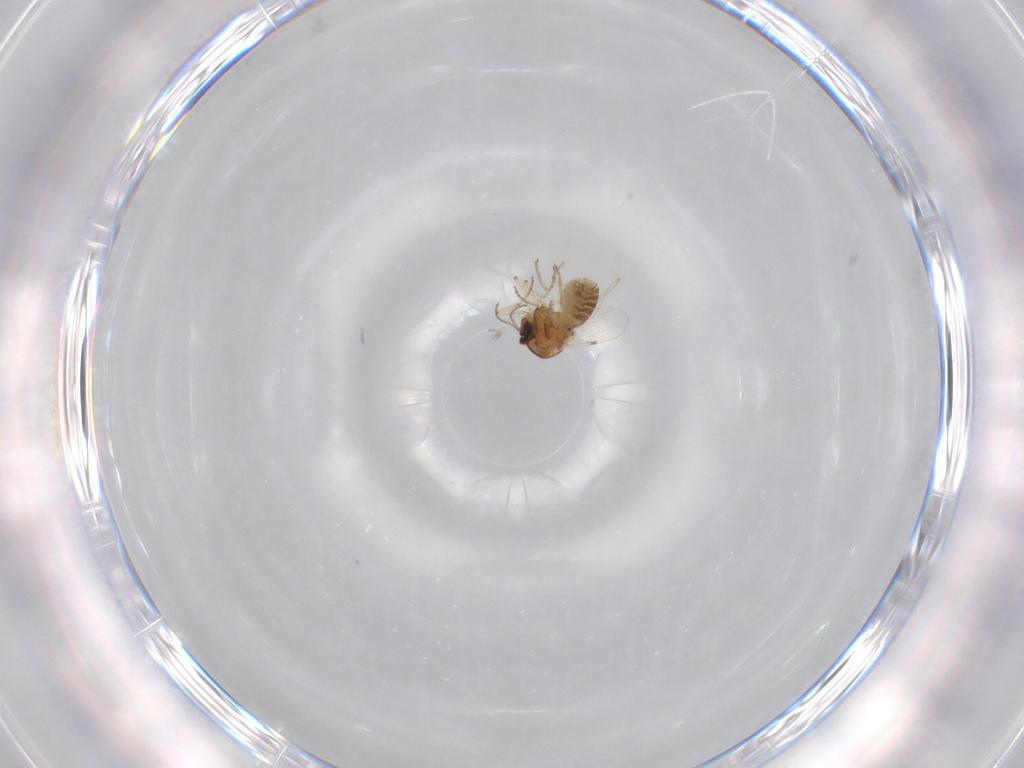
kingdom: Animalia
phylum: Arthropoda
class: Insecta
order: Diptera
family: Ceratopogonidae
